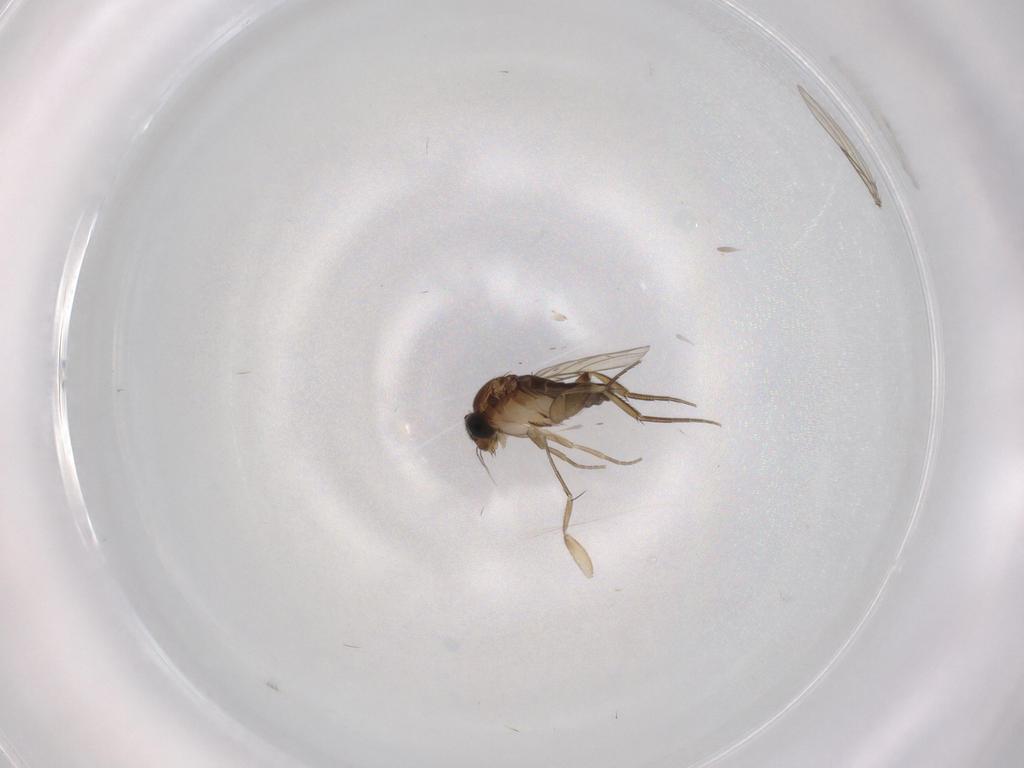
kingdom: Animalia
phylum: Arthropoda
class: Insecta
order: Diptera
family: Phoridae
